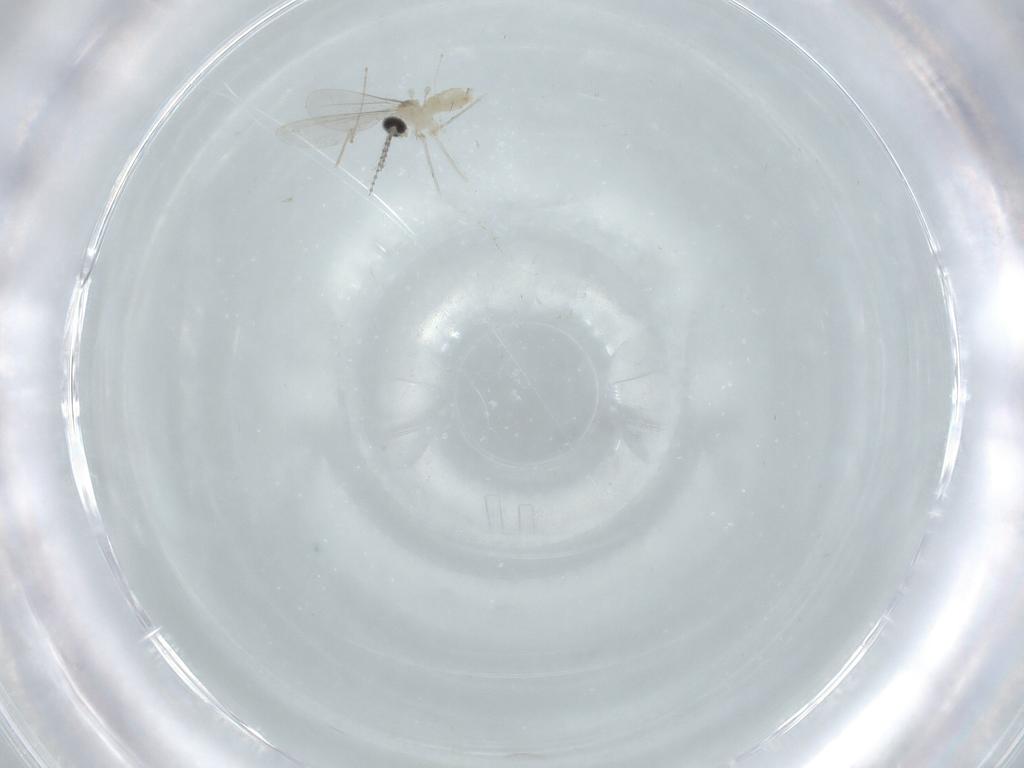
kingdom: Animalia
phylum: Arthropoda
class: Insecta
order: Diptera
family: Cecidomyiidae
